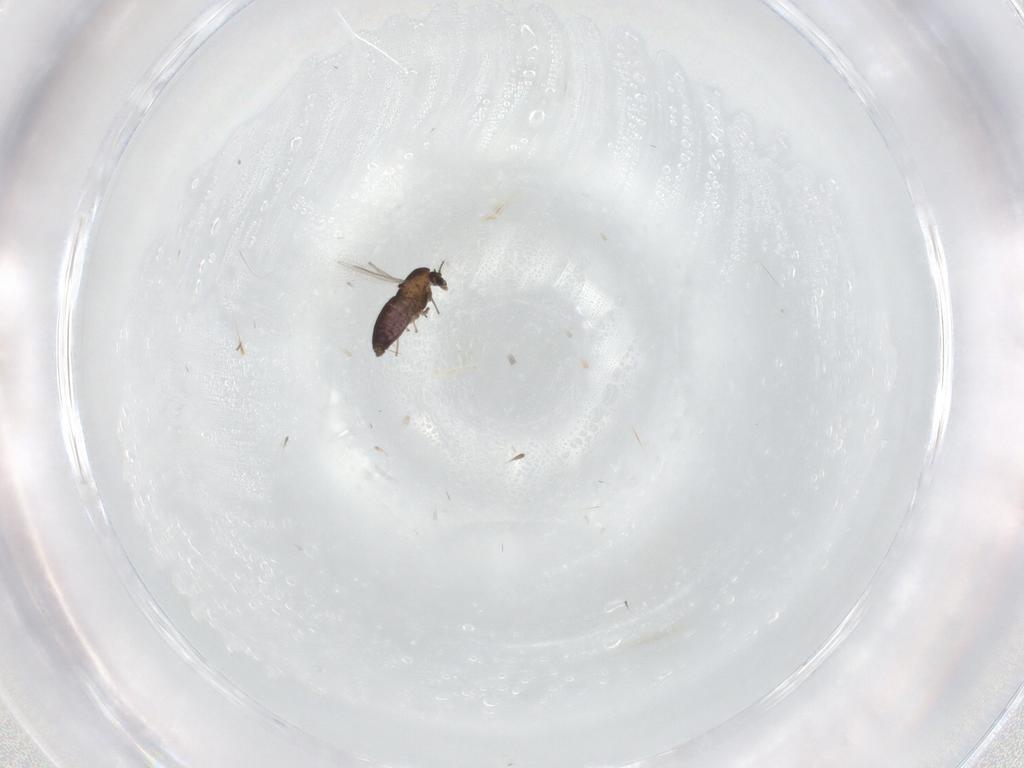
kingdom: Animalia
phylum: Arthropoda
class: Insecta
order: Diptera
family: Chironomidae
